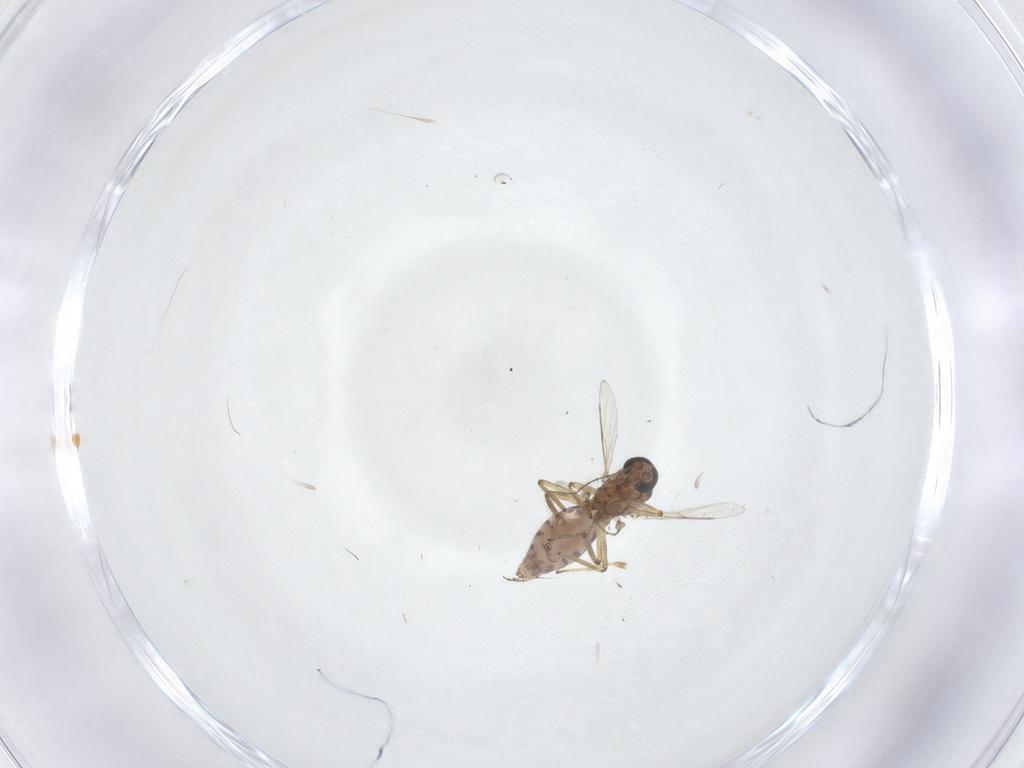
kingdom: Animalia
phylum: Arthropoda
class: Insecta
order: Diptera
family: Ceratopogonidae
